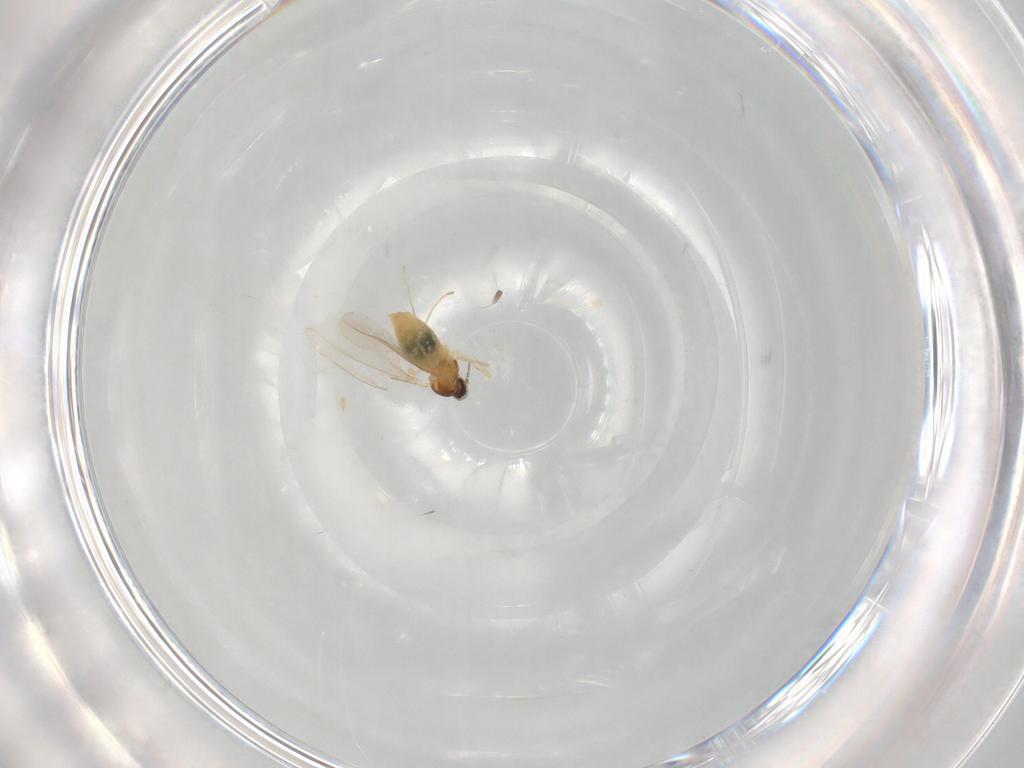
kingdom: Animalia
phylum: Arthropoda
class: Insecta
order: Diptera
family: Cecidomyiidae
